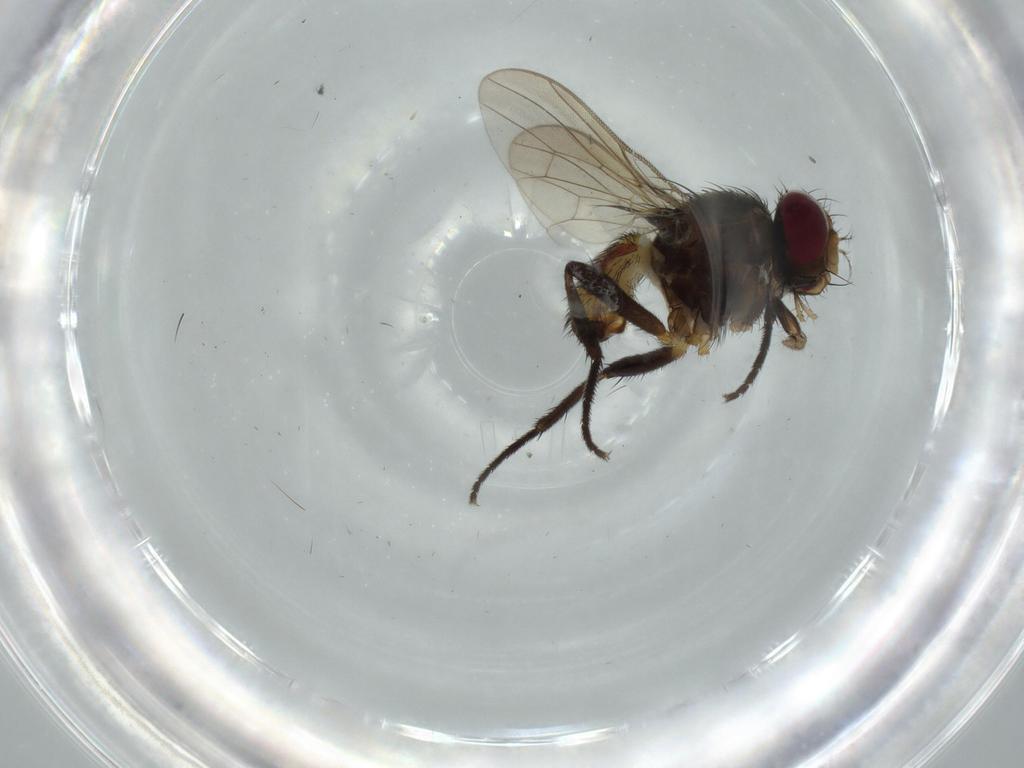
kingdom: Animalia
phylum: Arthropoda
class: Insecta
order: Diptera
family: Anthomyiidae
